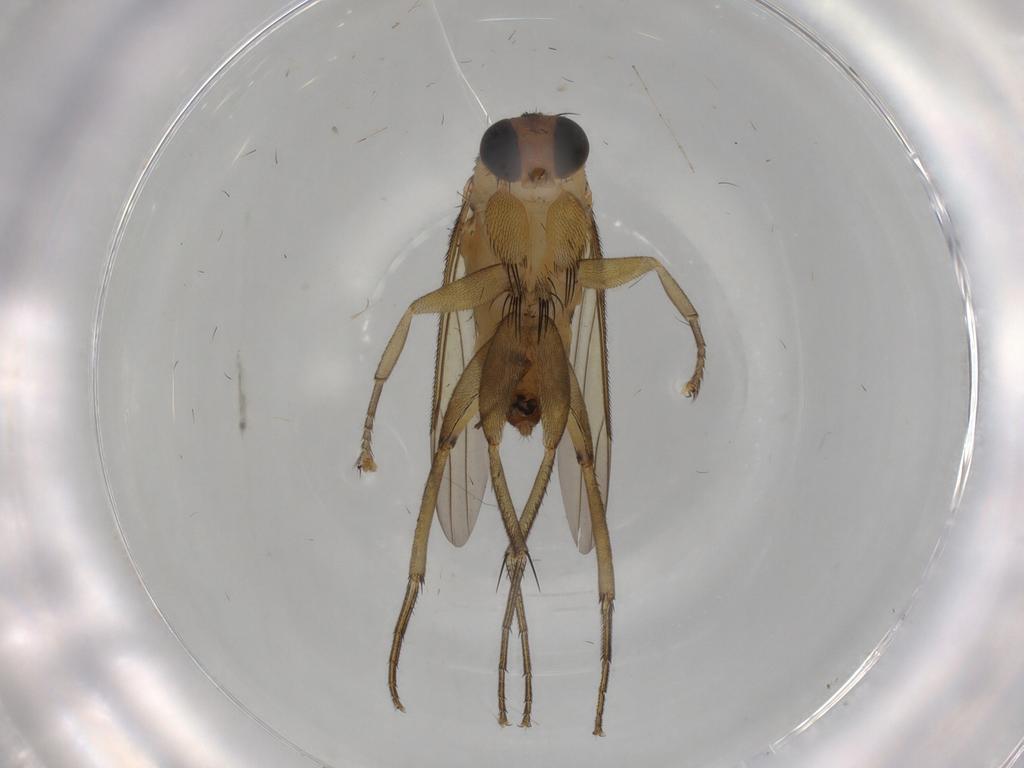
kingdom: Animalia
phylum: Arthropoda
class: Insecta
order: Diptera
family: Phoridae
